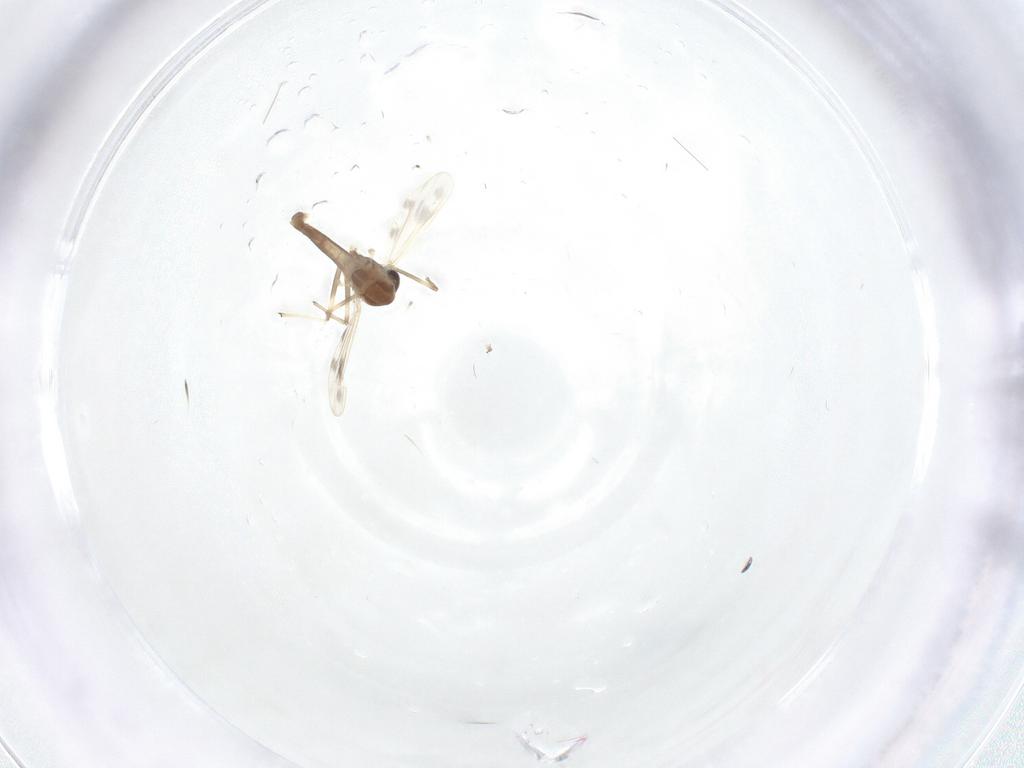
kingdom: Animalia
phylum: Arthropoda
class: Insecta
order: Diptera
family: Chironomidae
